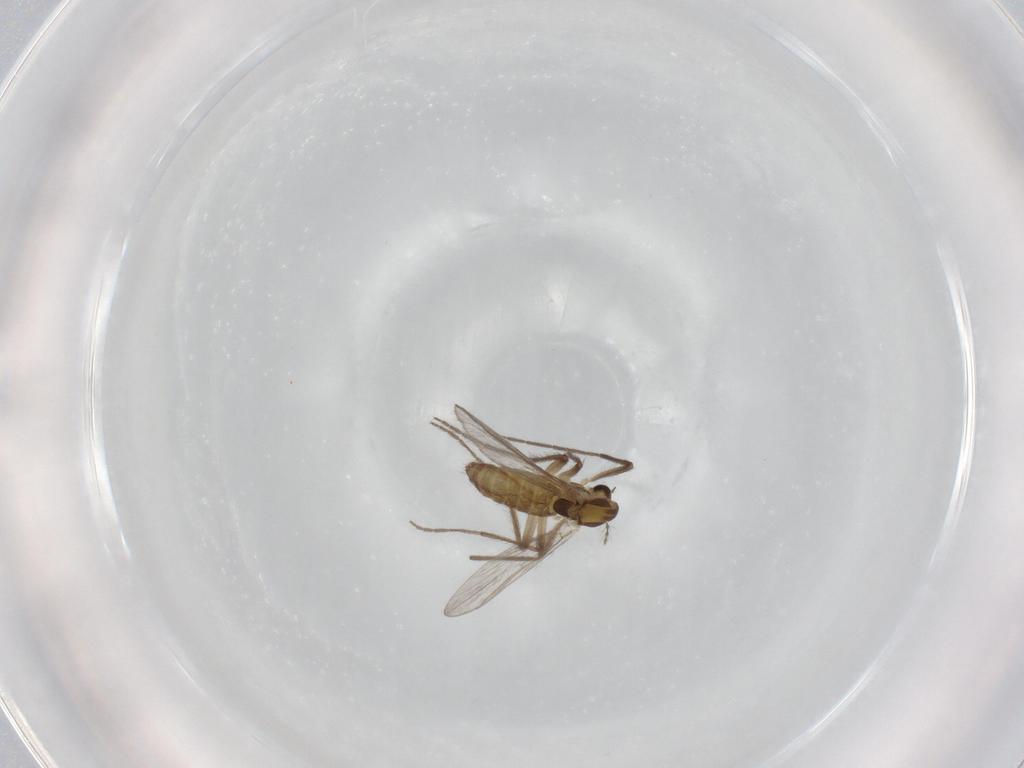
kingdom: Animalia
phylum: Arthropoda
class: Insecta
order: Diptera
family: Chironomidae
